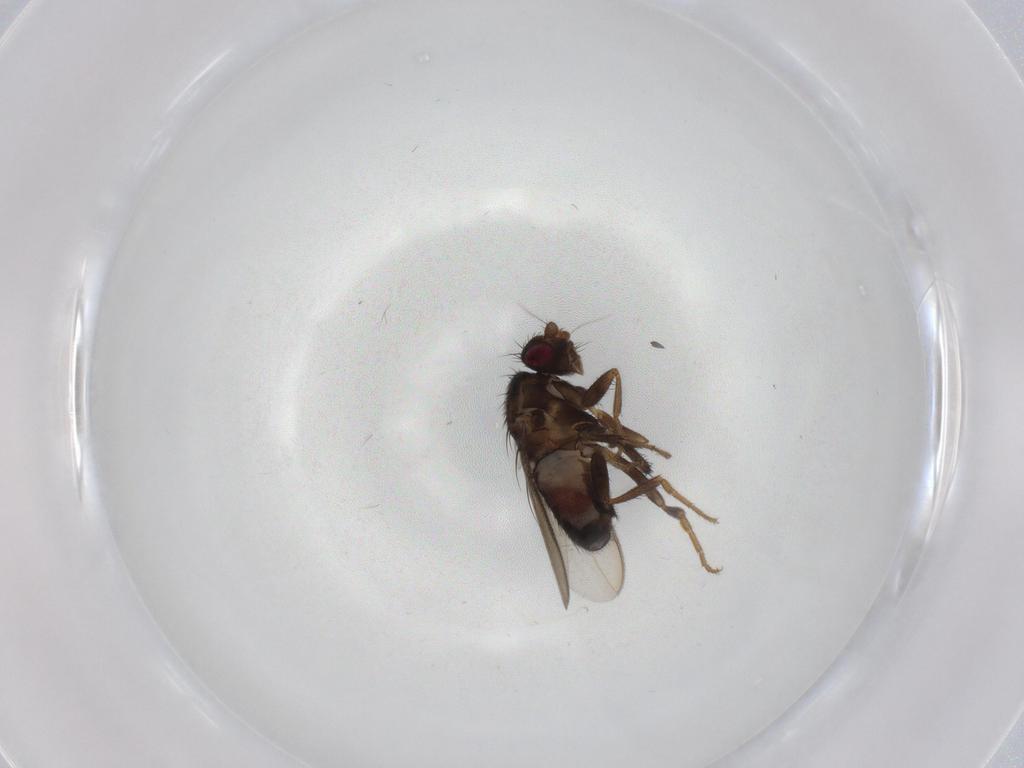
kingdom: Animalia
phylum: Arthropoda
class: Insecta
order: Diptera
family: Sphaeroceridae
